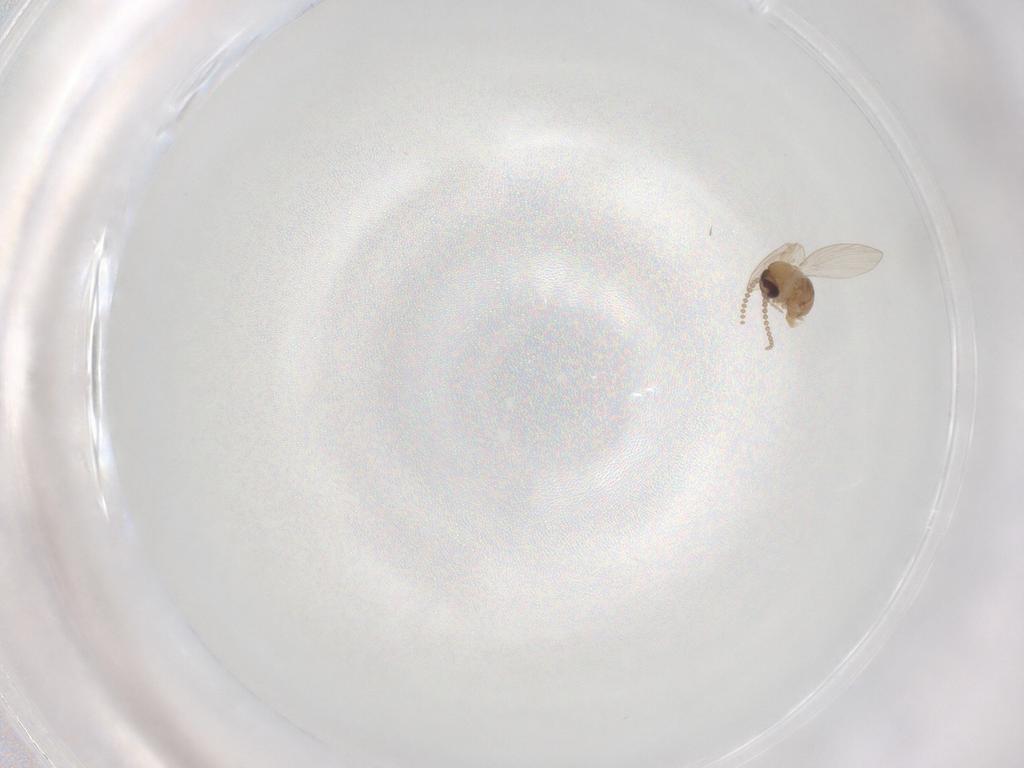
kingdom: Animalia
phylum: Arthropoda
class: Insecta
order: Diptera
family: Psychodidae
